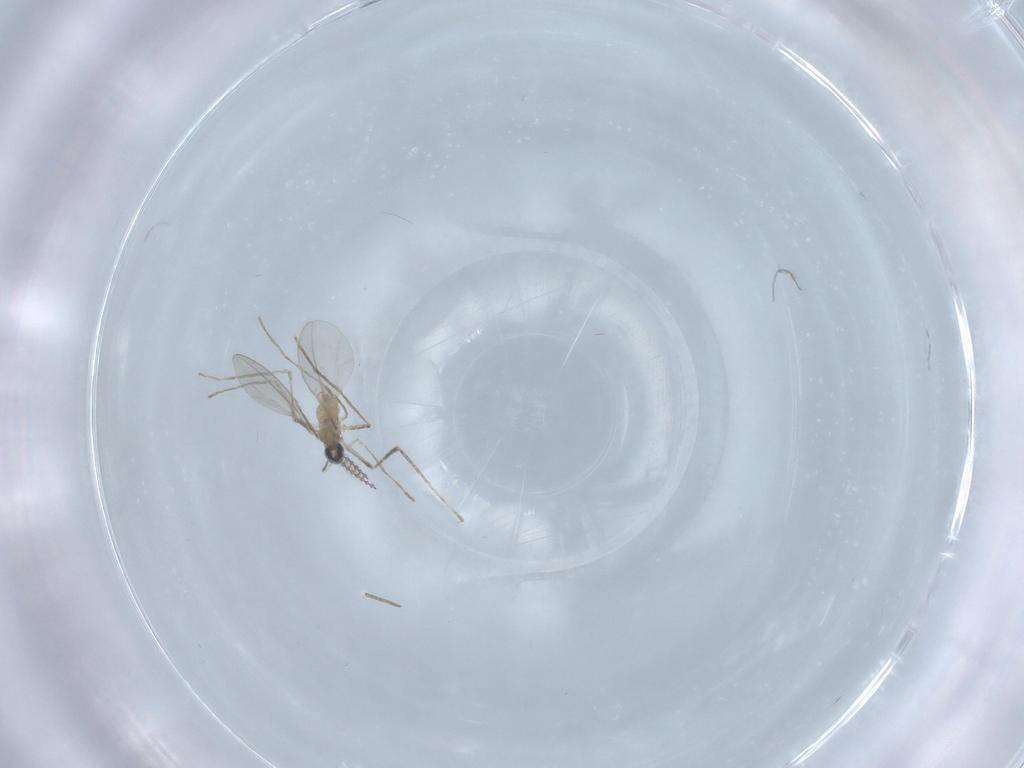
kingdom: Animalia
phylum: Arthropoda
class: Insecta
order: Diptera
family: Cecidomyiidae
